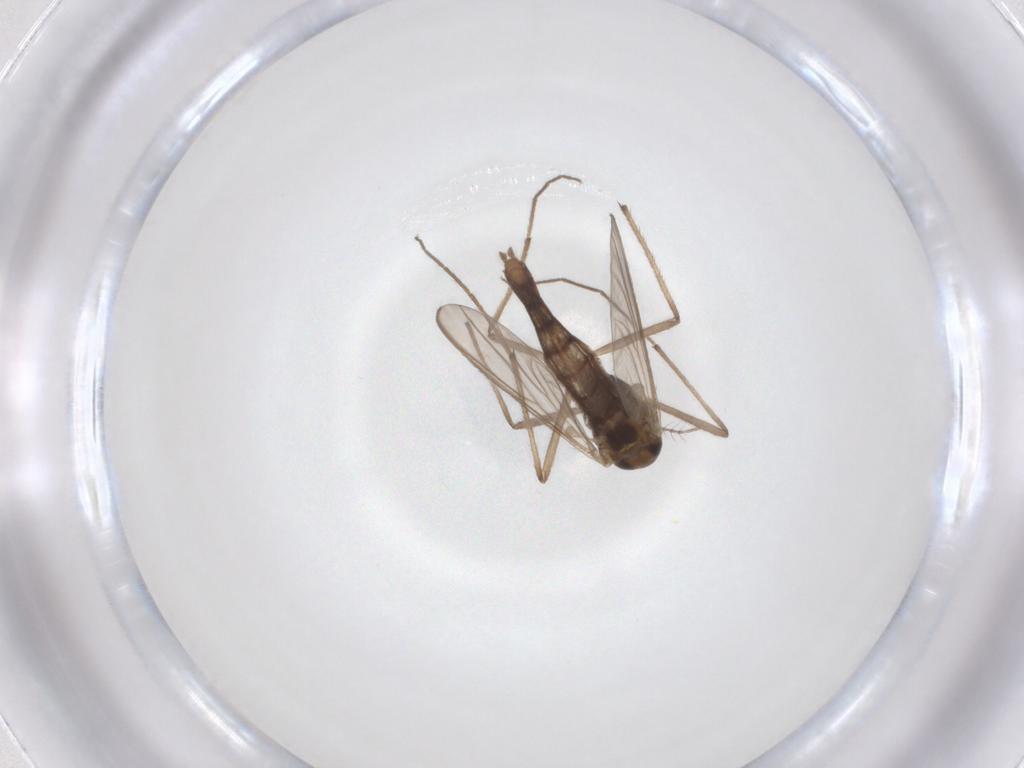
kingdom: Animalia
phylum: Arthropoda
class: Insecta
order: Diptera
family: Chironomidae
